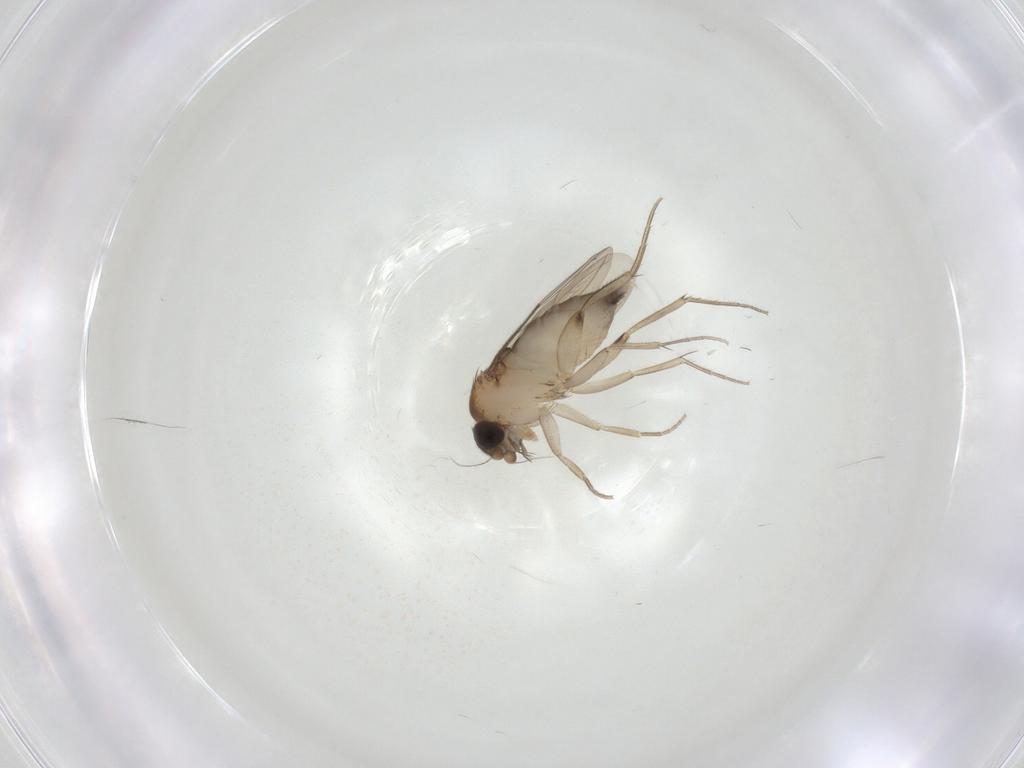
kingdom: Animalia
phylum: Arthropoda
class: Insecta
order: Diptera
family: Phoridae
